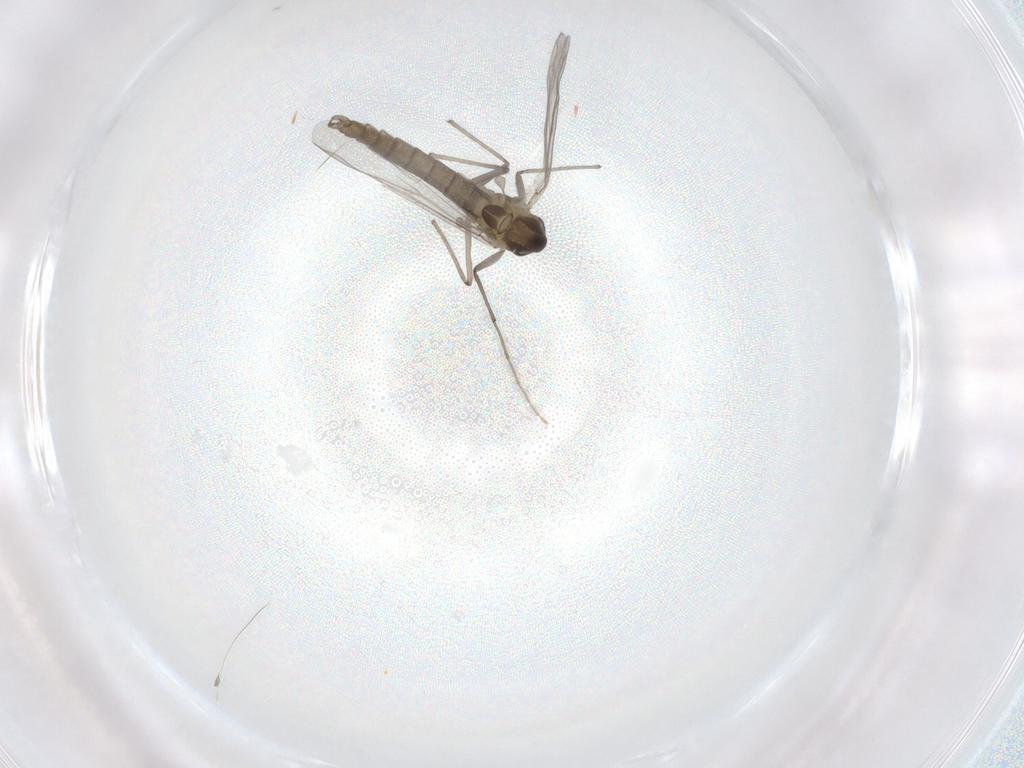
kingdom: Animalia
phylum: Arthropoda
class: Insecta
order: Diptera
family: Chironomidae
